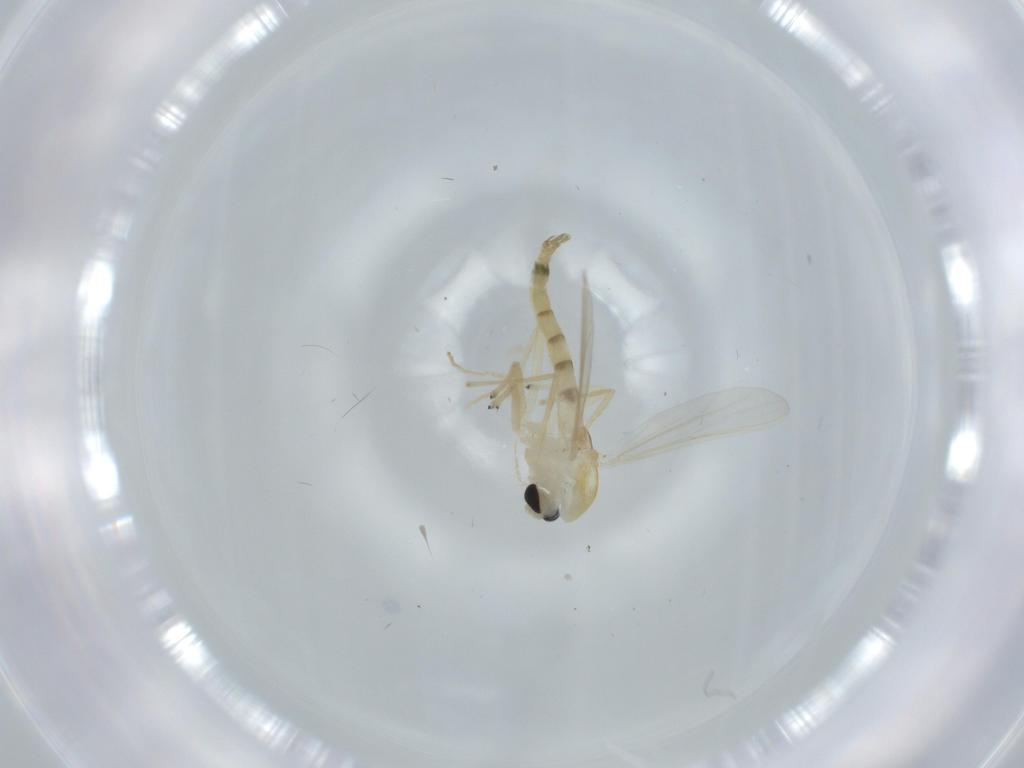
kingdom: Animalia
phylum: Arthropoda
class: Insecta
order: Diptera
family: Chironomidae
